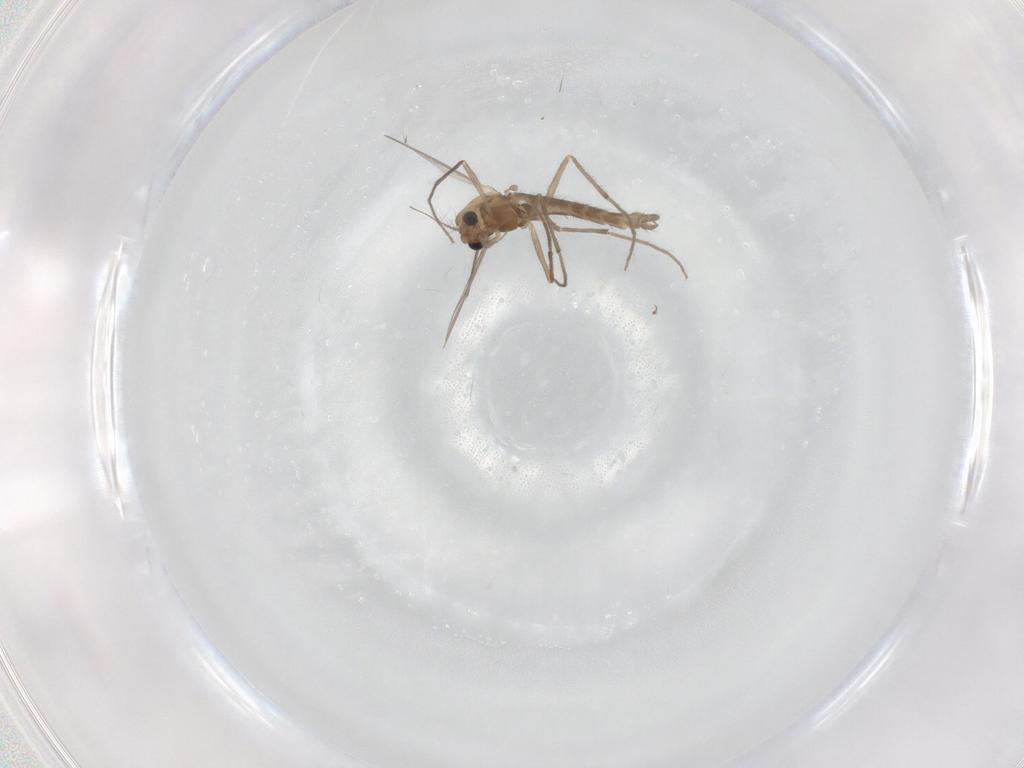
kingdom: Animalia
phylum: Arthropoda
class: Insecta
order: Diptera
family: Chironomidae
